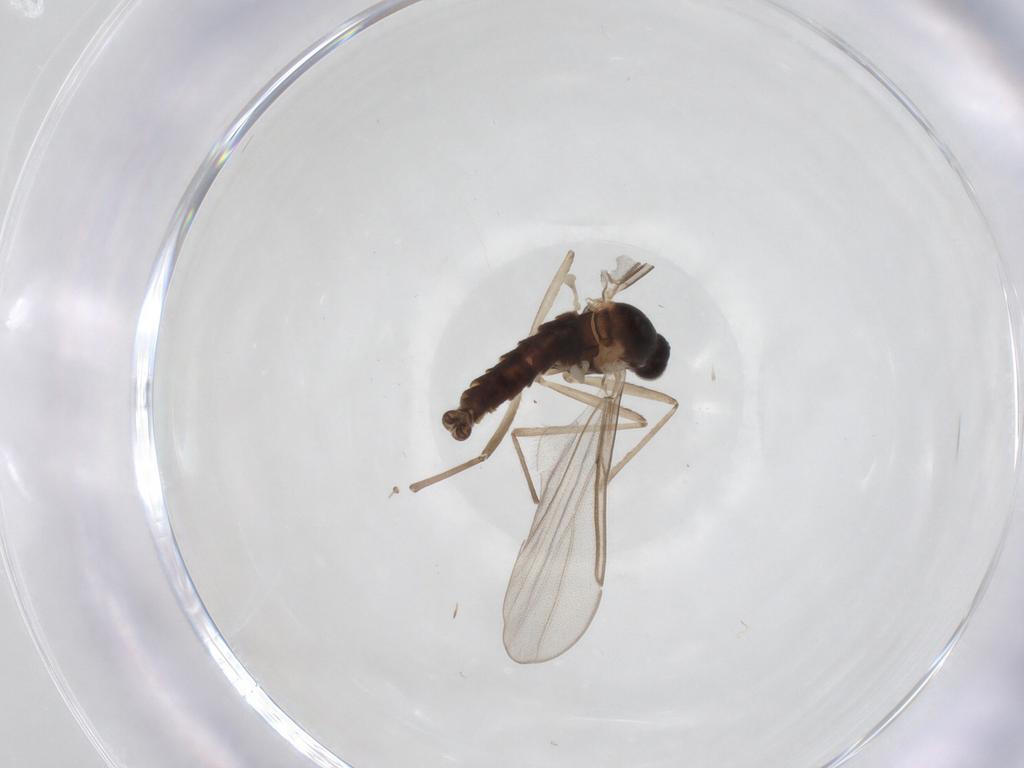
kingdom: Animalia
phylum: Arthropoda
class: Insecta
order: Diptera
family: Cecidomyiidae
